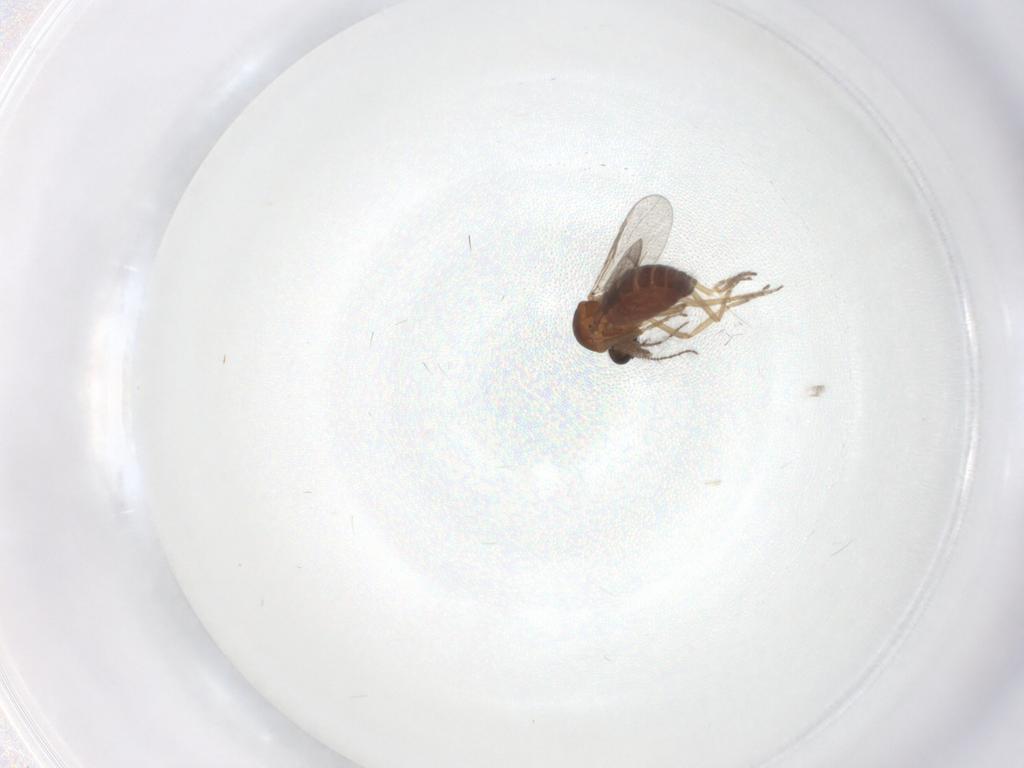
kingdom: Animalia
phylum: Arthropoda
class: Insecta
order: Diptera
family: Ceratopogonidae
